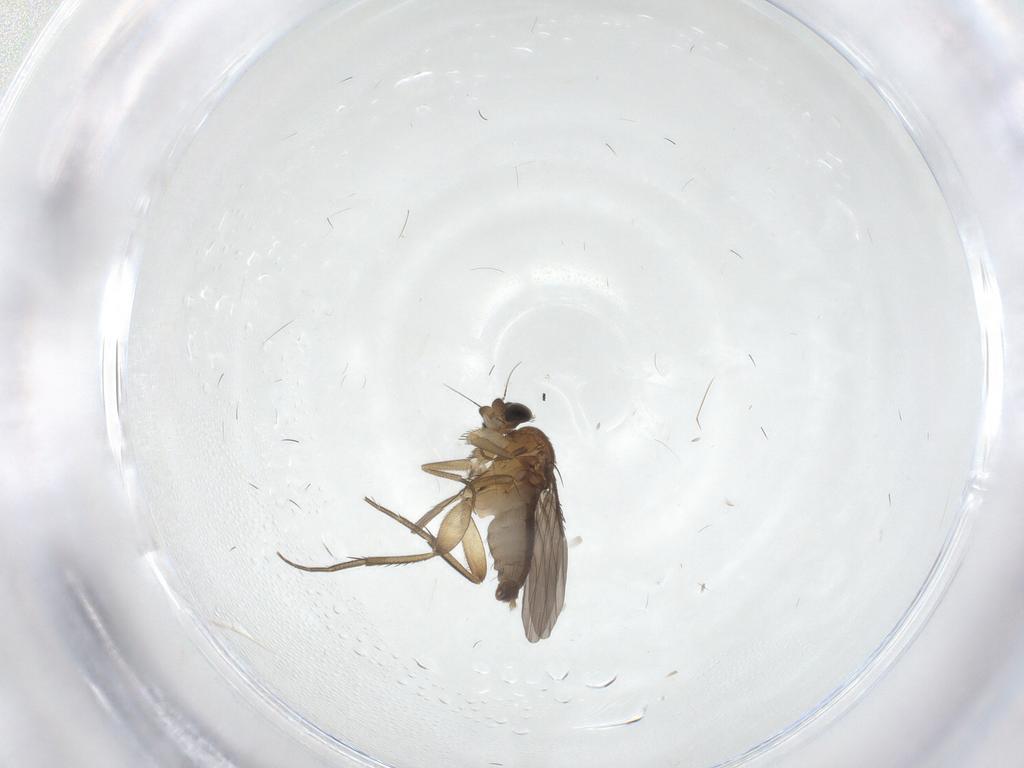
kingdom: Animalia
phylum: Arthropoda
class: Insecta
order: Diptera
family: Phoridae
